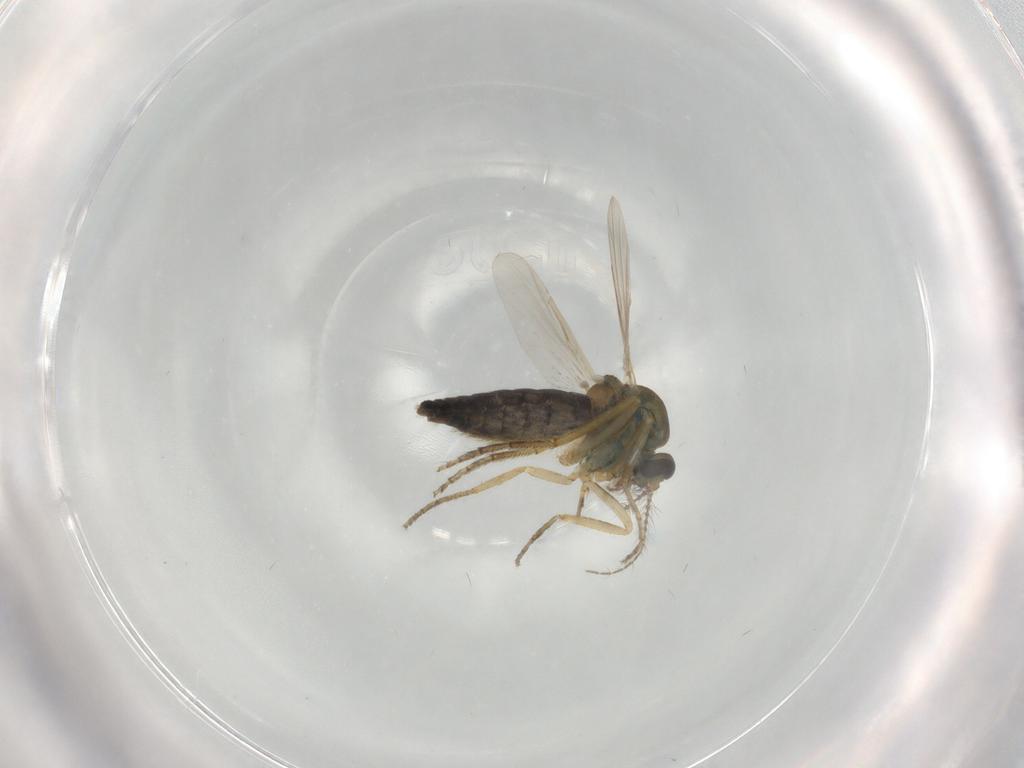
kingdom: Animalia
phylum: Arthropoda
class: Insecta
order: Diptera
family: Ceratopogonidae
